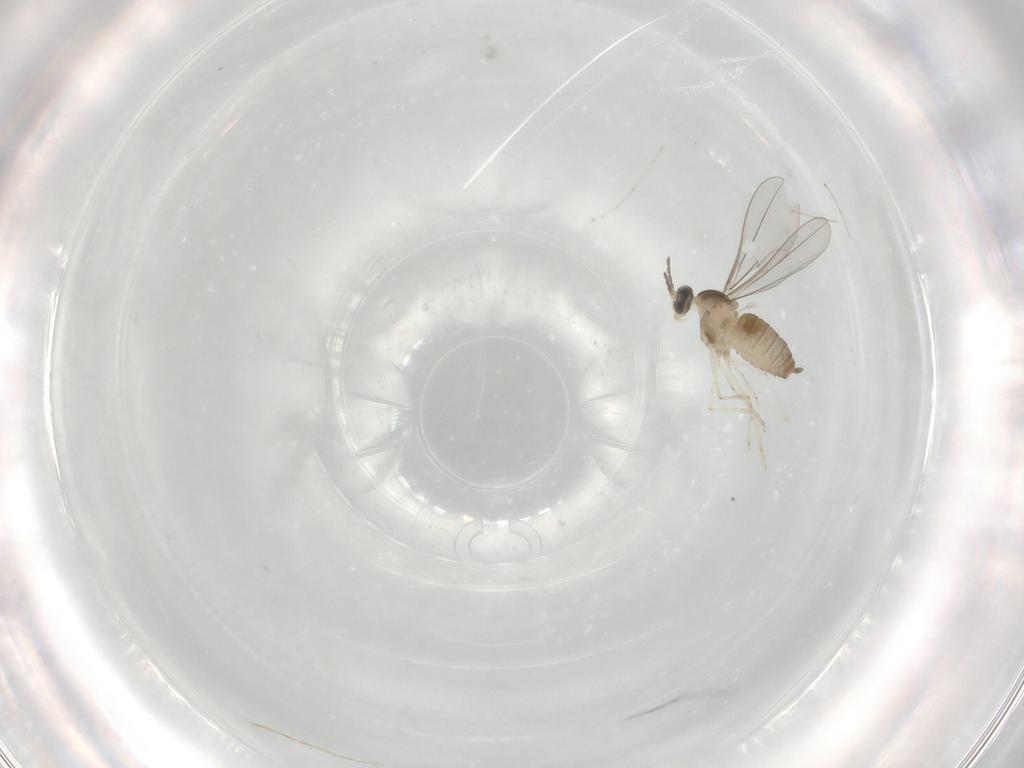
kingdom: Animalia
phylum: Arthropoda
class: Insecta
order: Diptera
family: Cecidomyiidae
